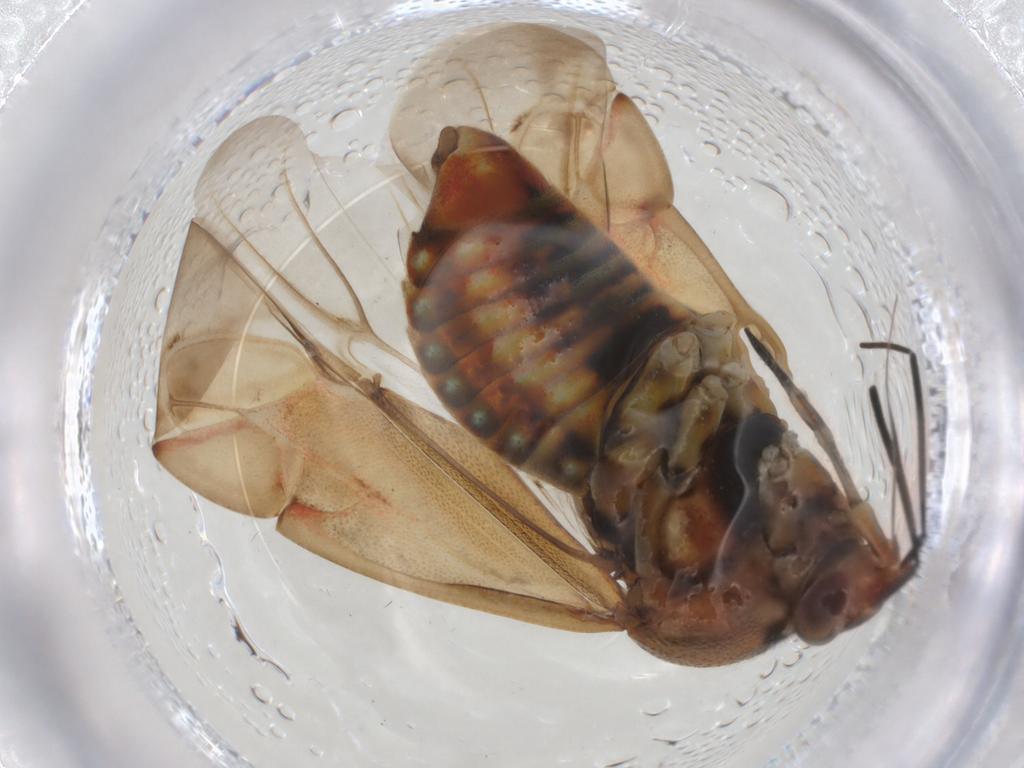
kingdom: Animalia
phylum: Arthropoda
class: Insecta
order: Hemiptera
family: Miridae
